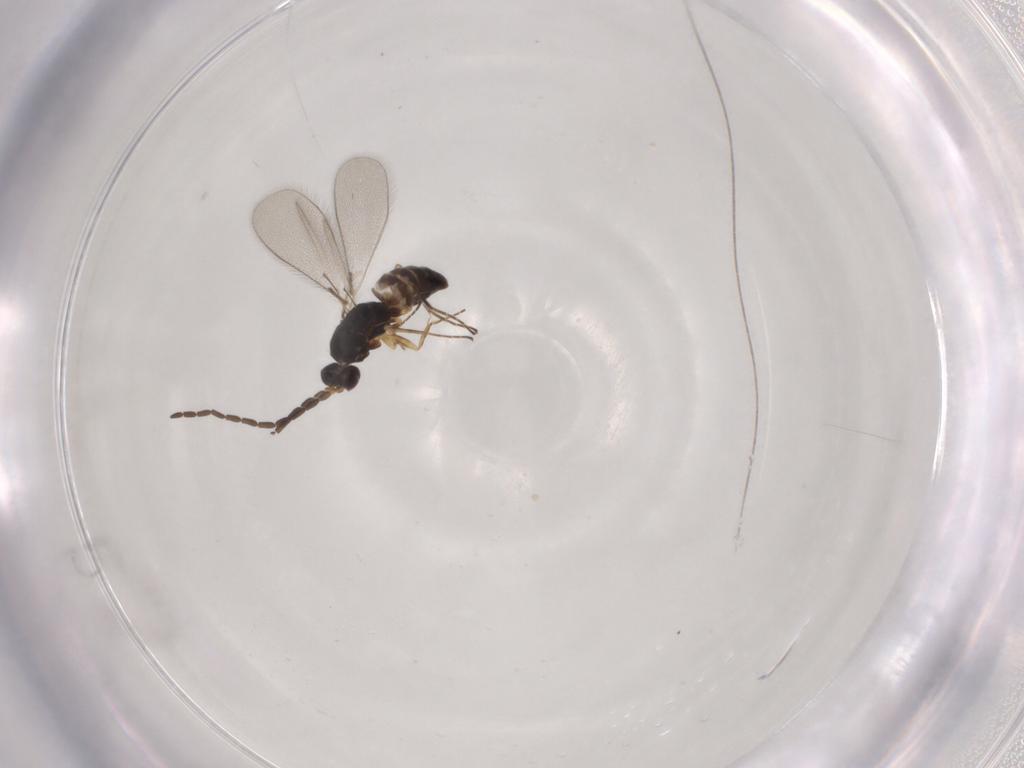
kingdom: Animalia
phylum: Arthropoda
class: Insecta
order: Hymenoptera
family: Mymaridae
